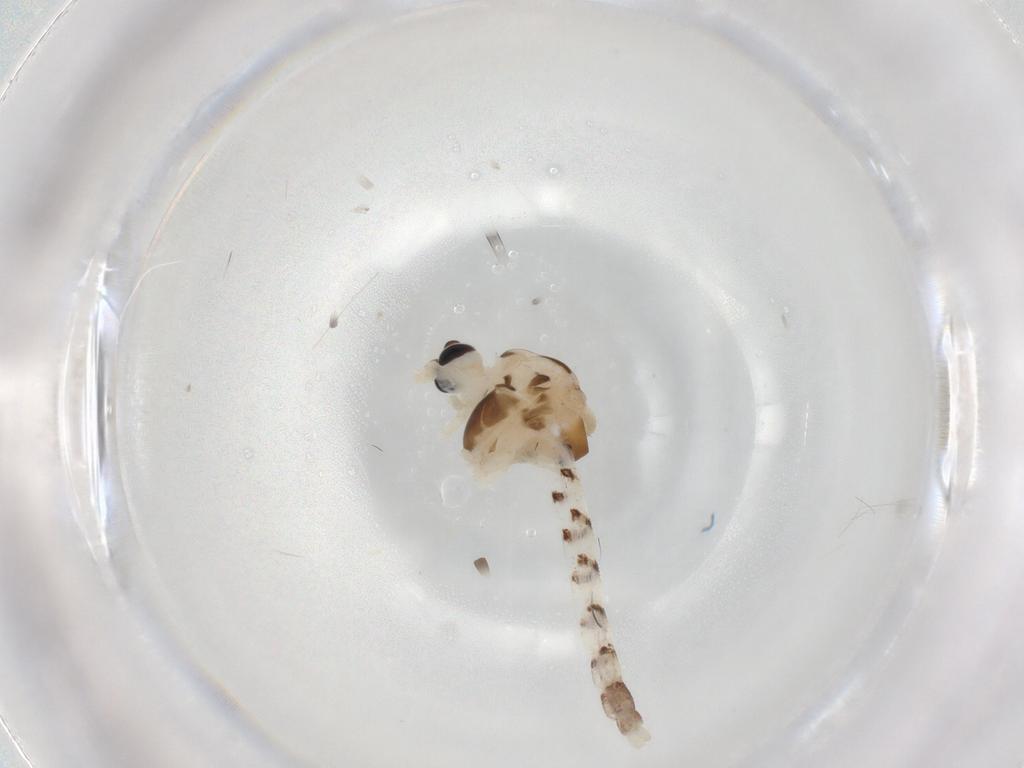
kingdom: Animalia
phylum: Arthropoda
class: Insecta
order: Diptera
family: Chironomidae
